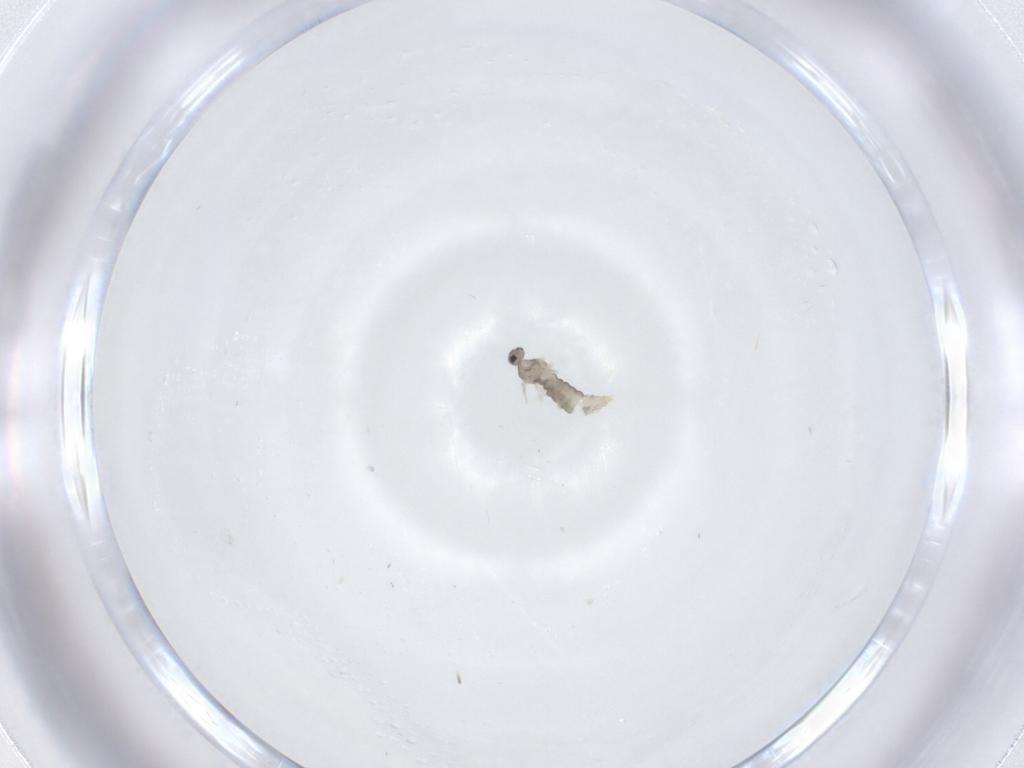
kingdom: Animalia
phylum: Arthropoda
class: Insecta
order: Diptera
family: Cecidomyiidae
